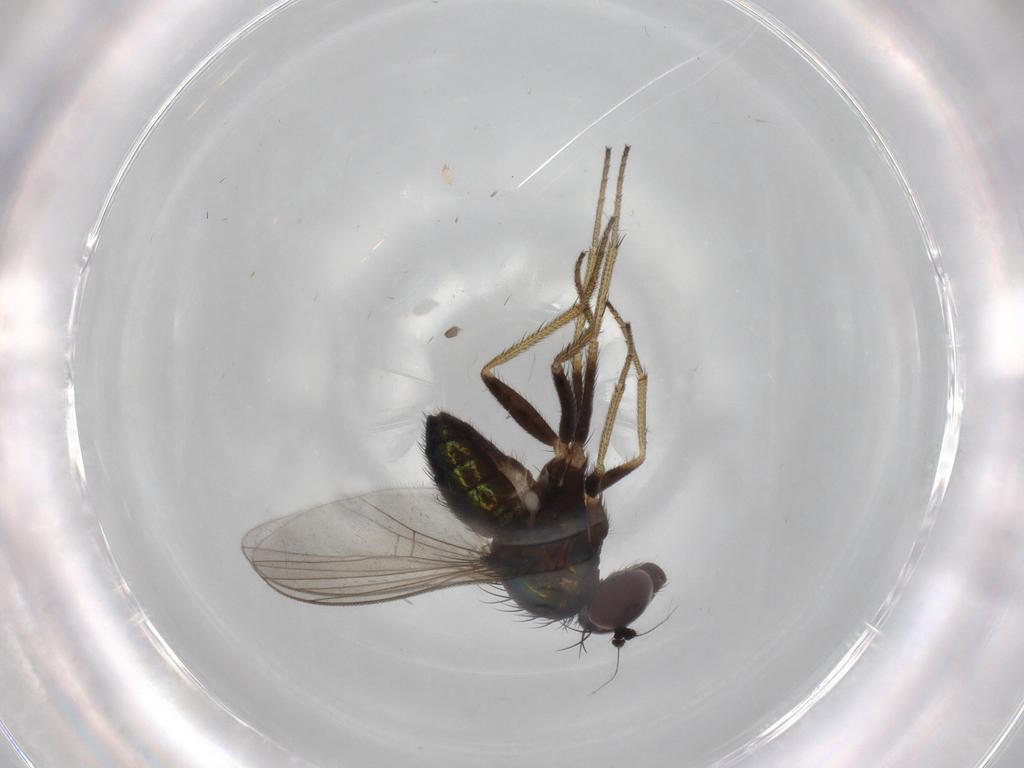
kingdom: Animalia
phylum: Arthropoda
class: Insecta
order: Diptera
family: Dolichopodidae
